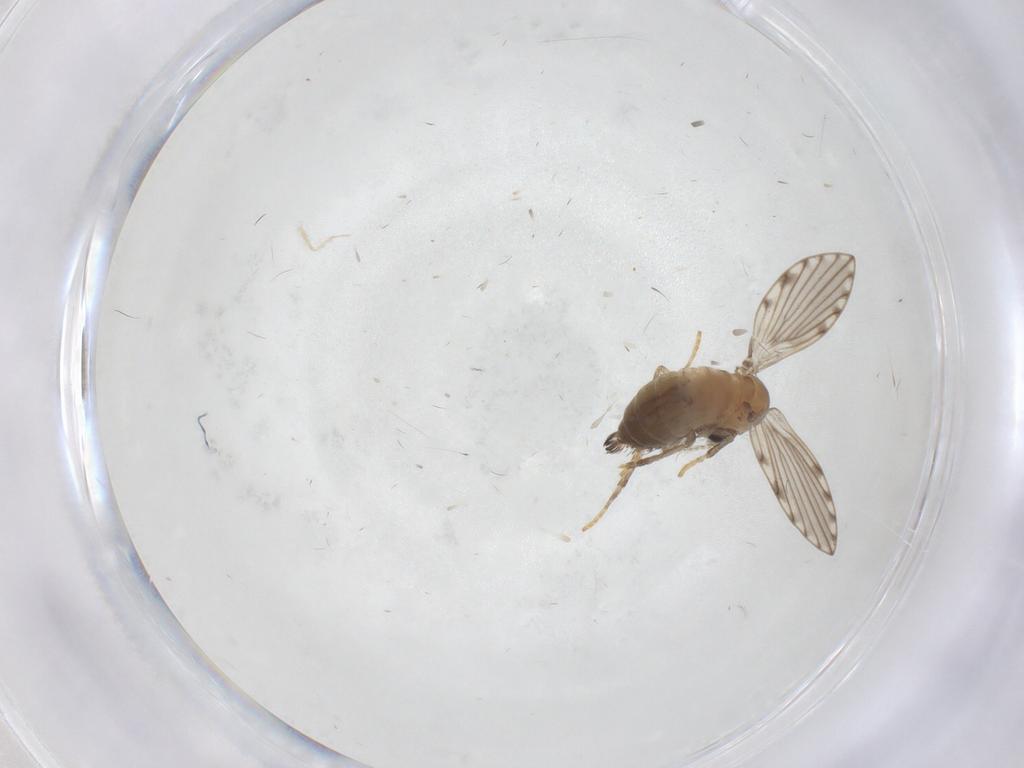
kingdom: Animalia
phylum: Arthropoda
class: Insecta
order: Diptera
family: Psychodidae
